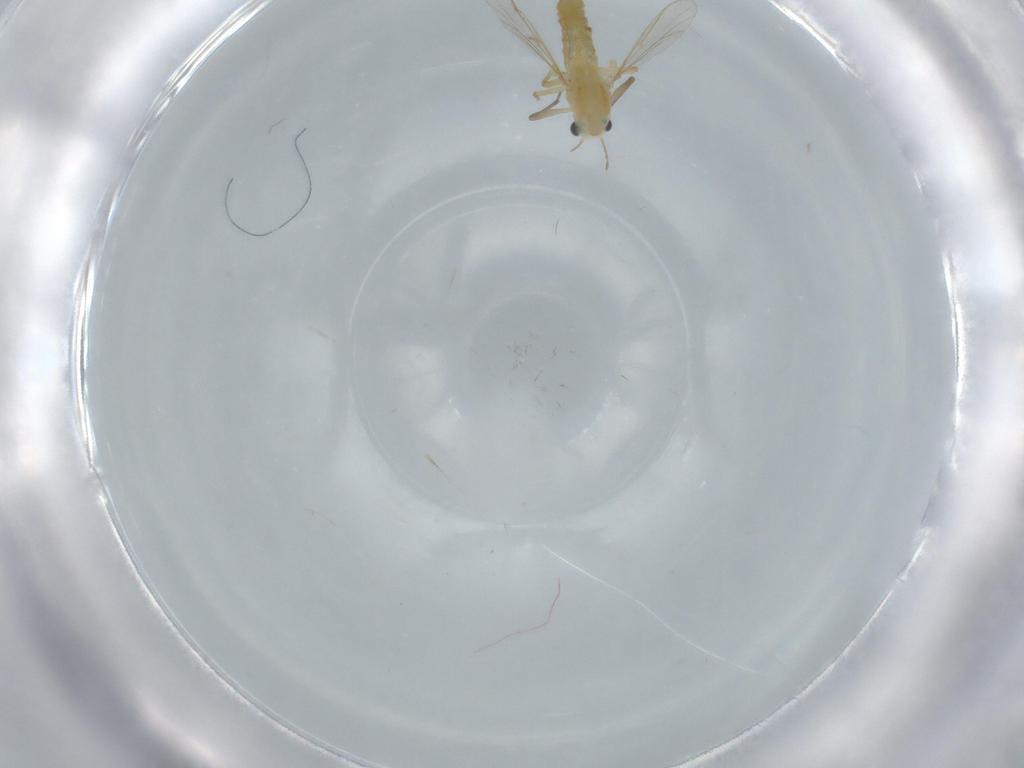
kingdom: Animalia
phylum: Arthropoda
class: Insecta
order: Diptera
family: Chironomidae
